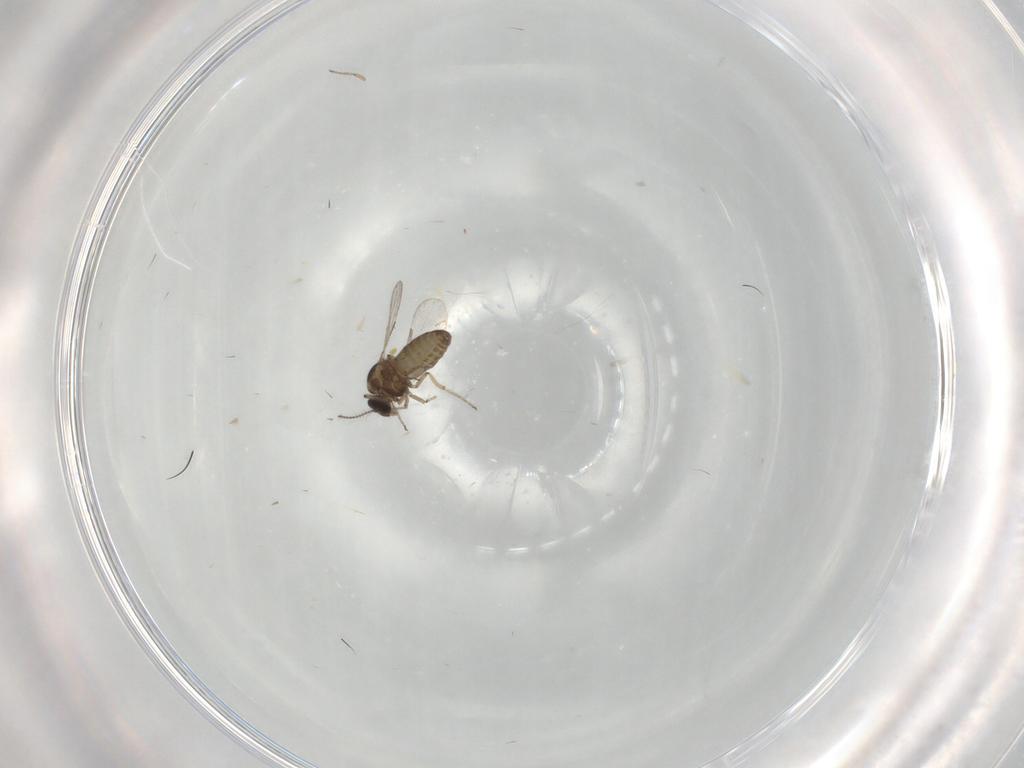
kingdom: Animalia
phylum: Arthropoda
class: Insecta
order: Diptera
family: Ceratopogonidae
